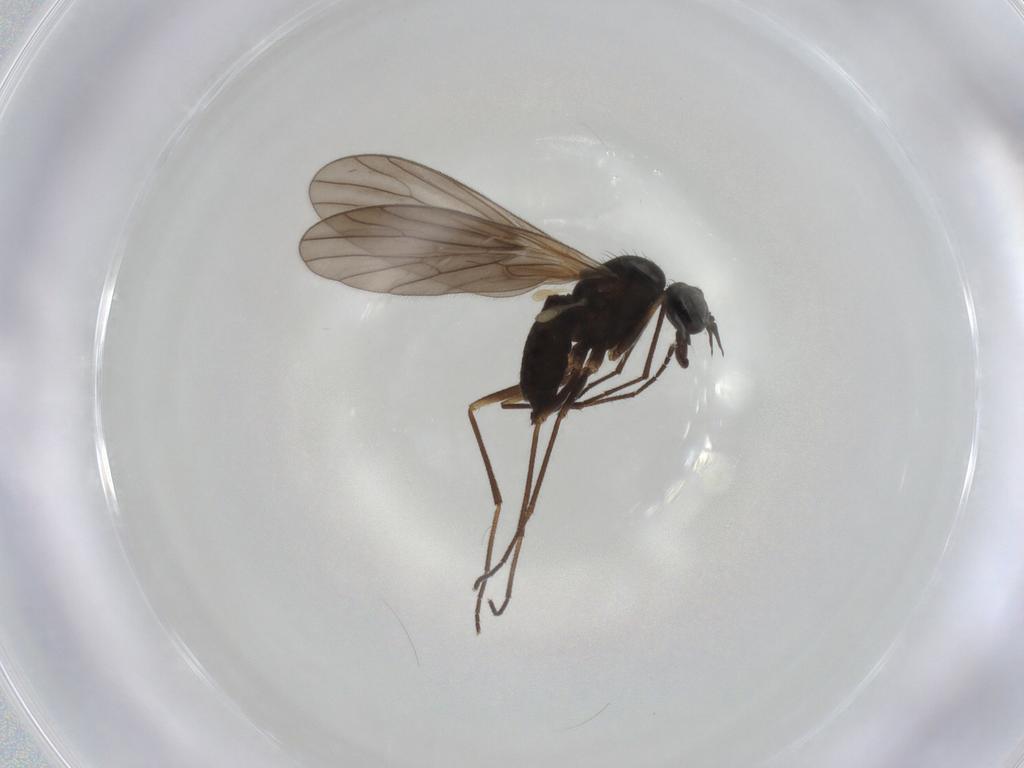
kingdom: Animalia
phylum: Arthropoda
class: Insecta
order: Diptera
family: Empididae
